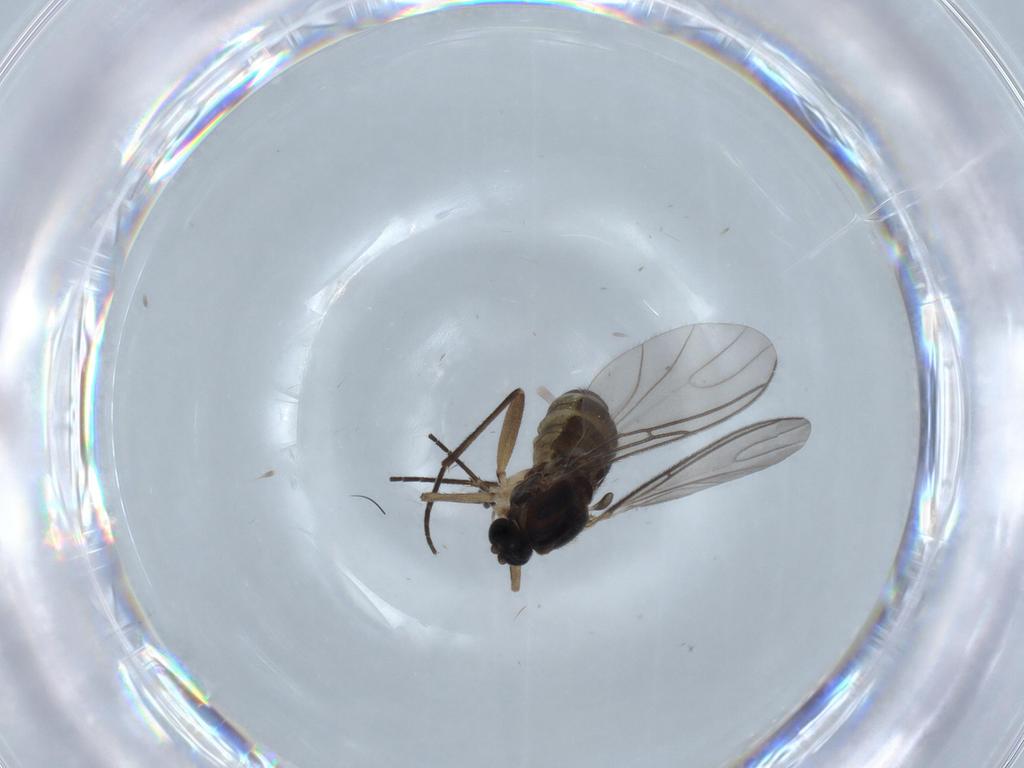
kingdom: Animalia
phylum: Arthropoda
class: Insecta
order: Diptera
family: Sciaridae
